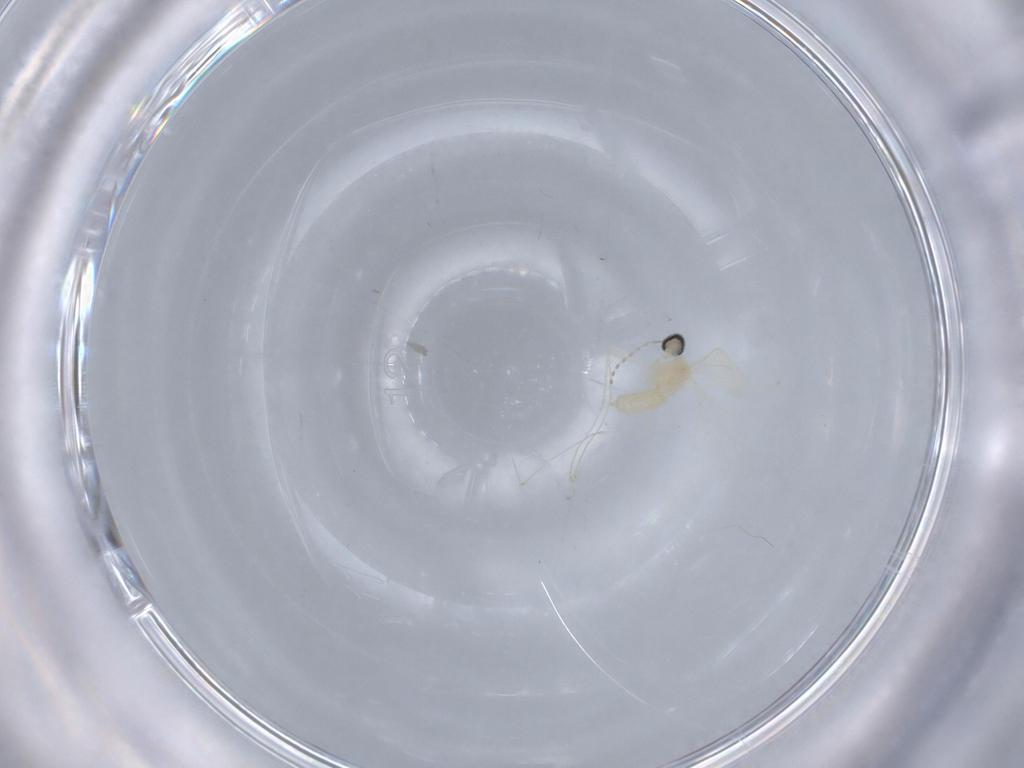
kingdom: Animalia
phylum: Arthropoda
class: Insecta
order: Diptera
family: Cecidomyiidae
